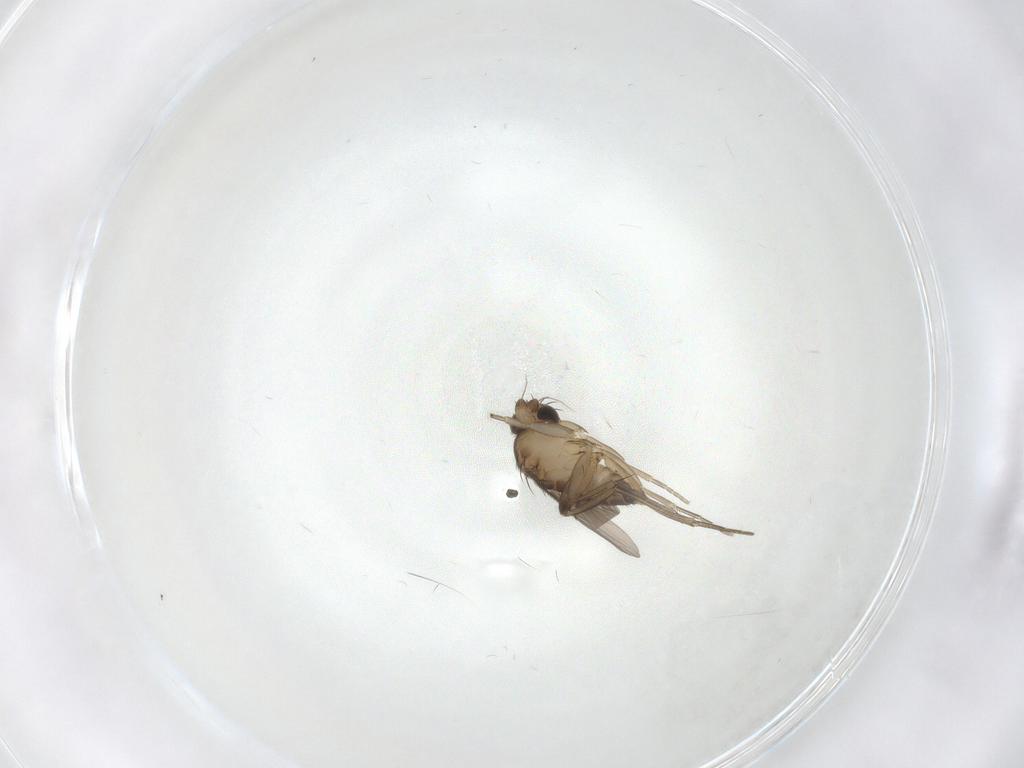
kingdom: Animalia
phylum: Arthropoda
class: Insecta
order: Diptera
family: Sciaridae
